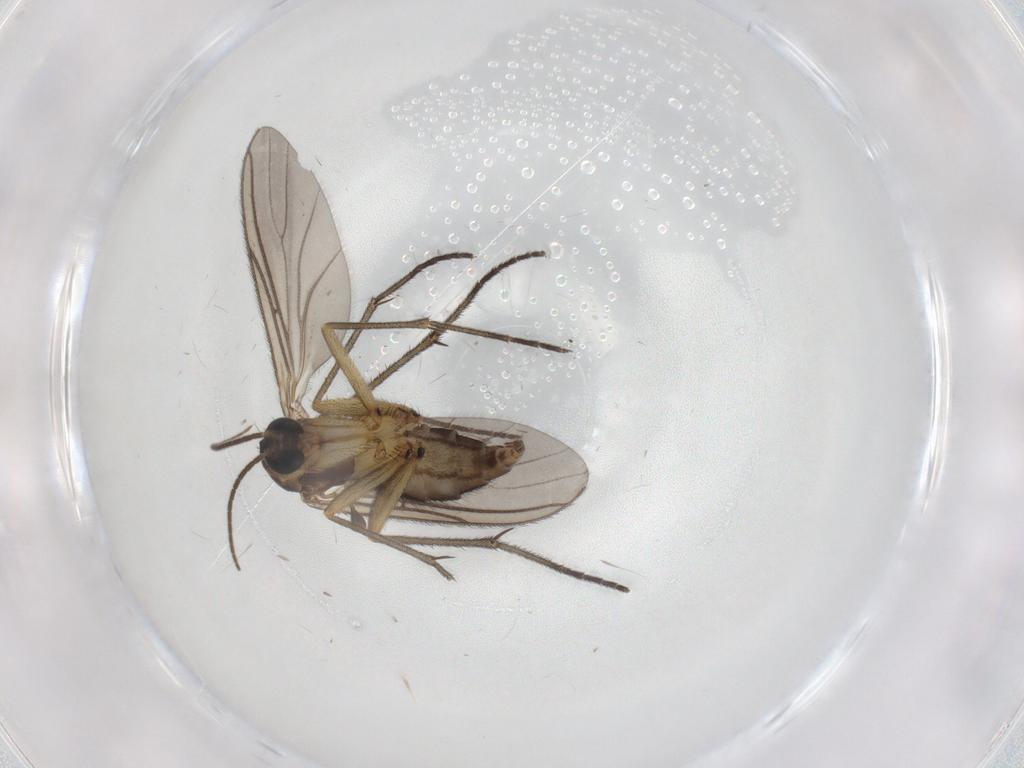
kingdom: Animalia
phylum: Arthropoda
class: Insecta
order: Diptera
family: Sciaridae
